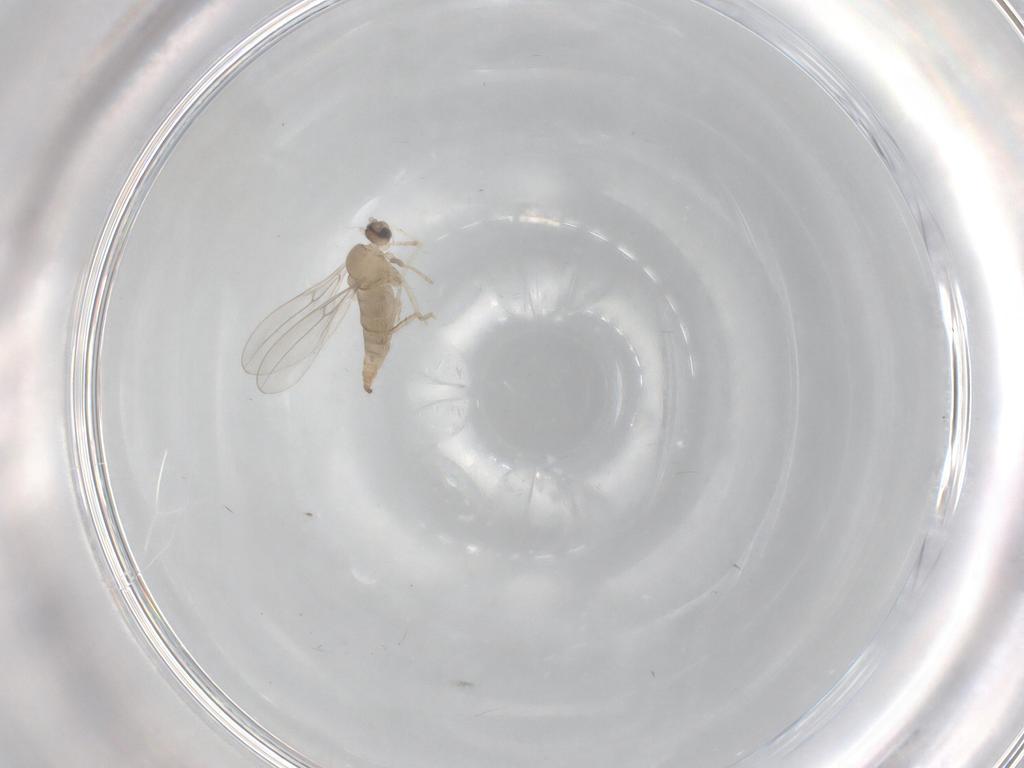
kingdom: Animalia
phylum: Arthropoda
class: Insecta
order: Diptera
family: Cecidomyiidae
